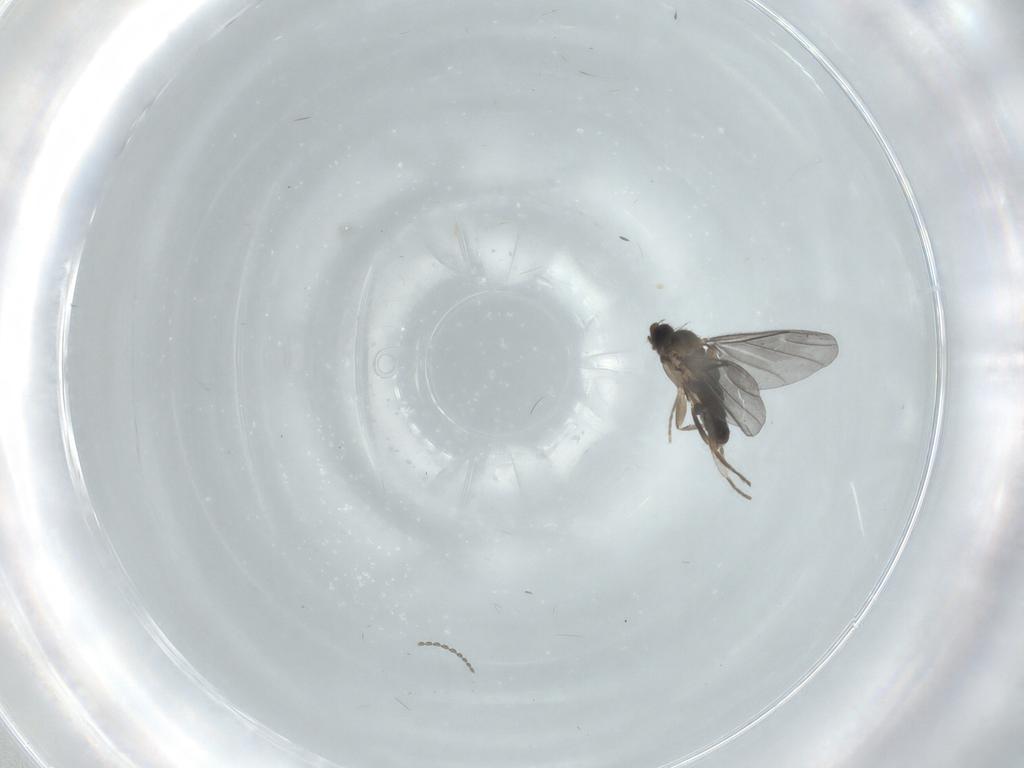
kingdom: Animalia
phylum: Arthropoda
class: Insecta
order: Diptera
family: Phoridae
